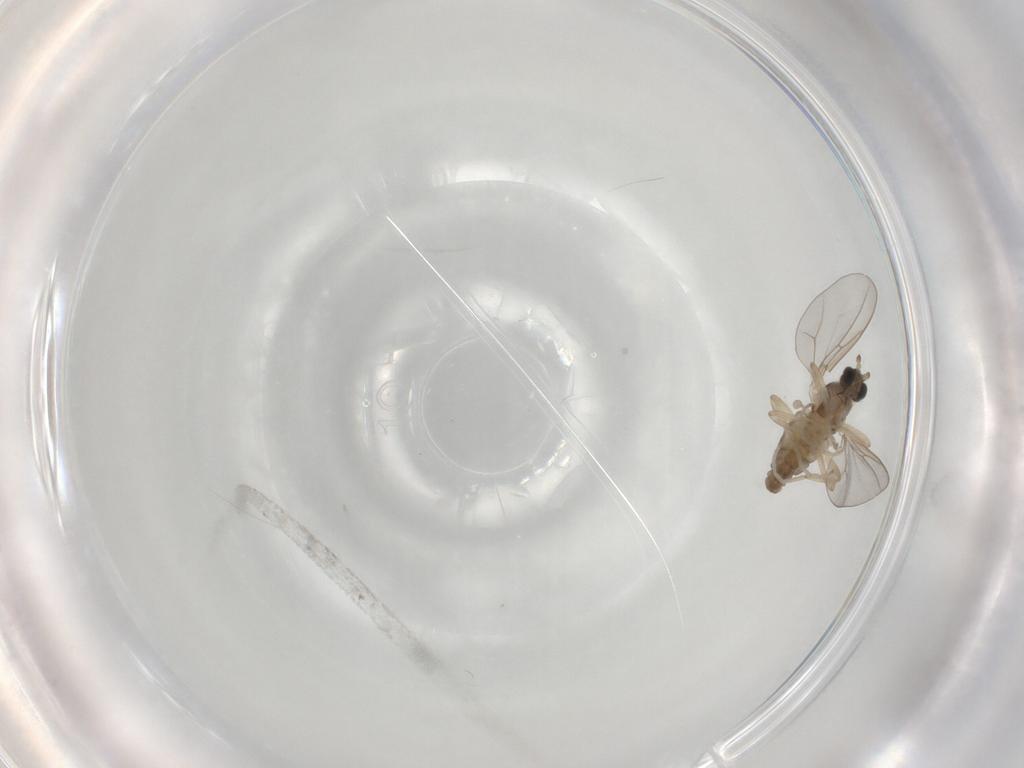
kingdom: Animalia
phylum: Arthropoda
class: Insecta
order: Diptera
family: Cecidomyiidae
